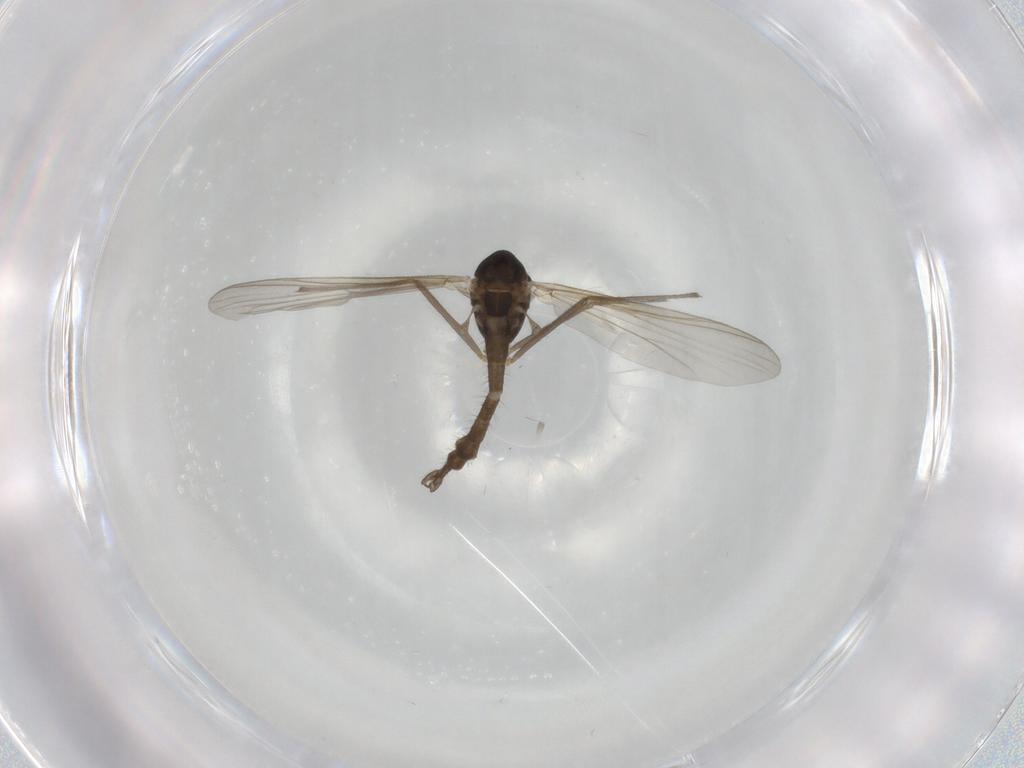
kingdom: Animalia
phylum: Arthropoda
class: Insecta
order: Diptera
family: Chironomidae
